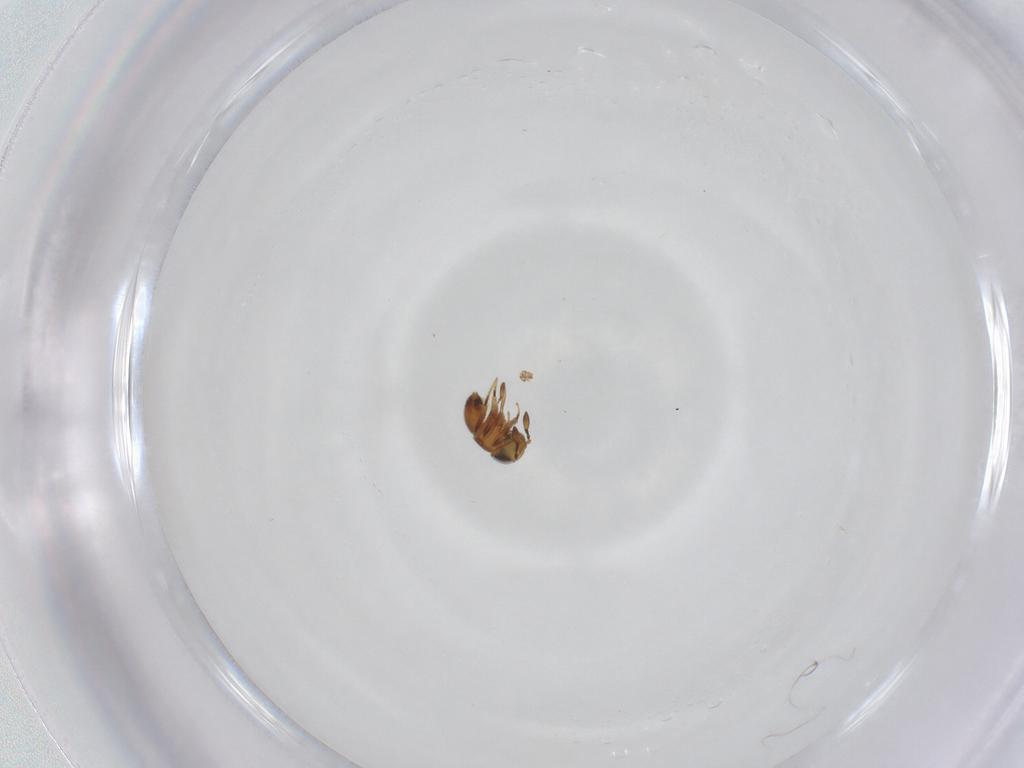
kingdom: Animalia
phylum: Arthropoda
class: Insecta
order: Hymenoptera
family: Scelionidae
